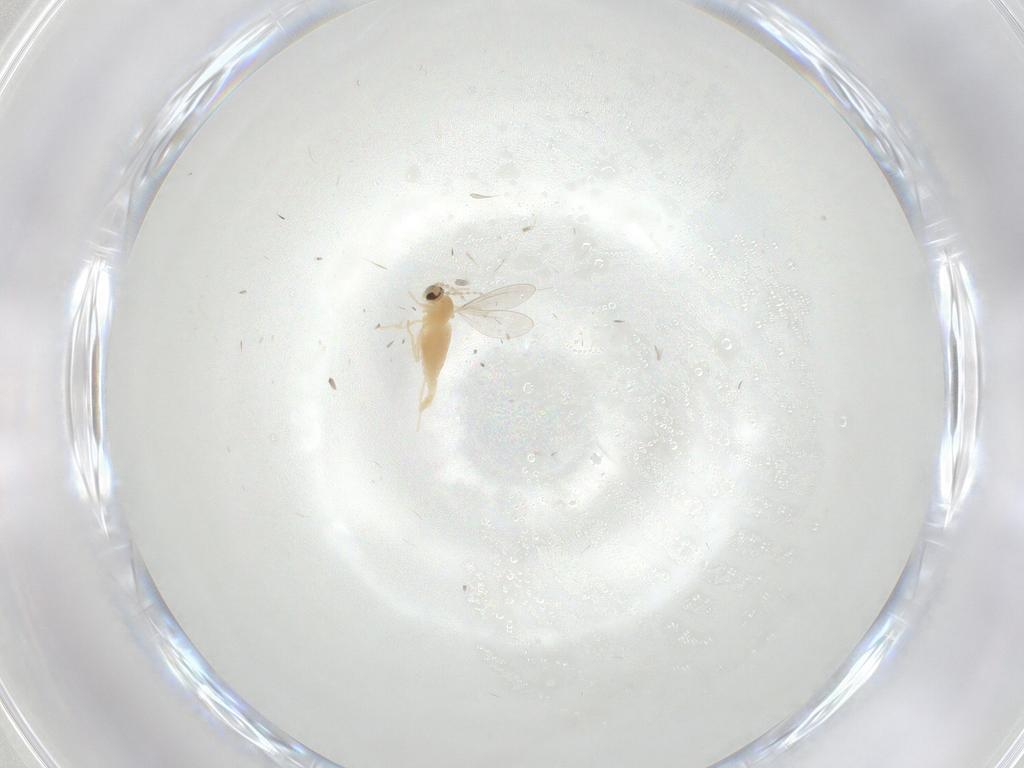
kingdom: Animalia
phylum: Arthropoda
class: Insecta
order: Diptera
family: Cecidomyiidae
